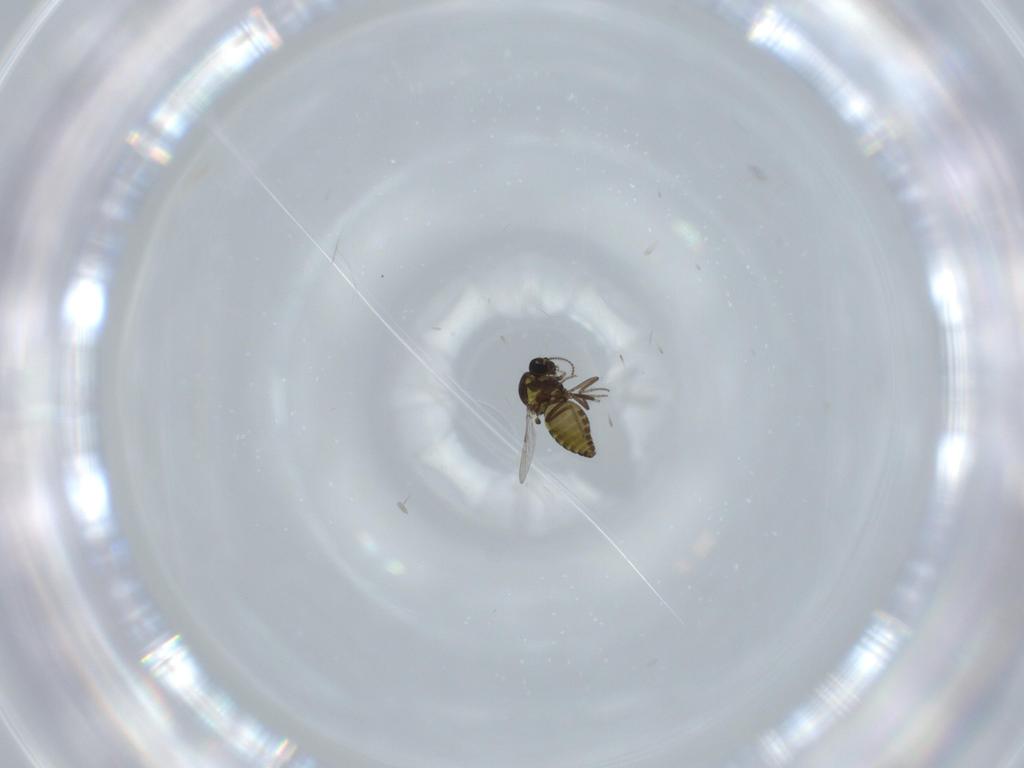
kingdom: Animalia
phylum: Arthropoda
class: Insecta
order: Diptera
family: Ceratopogonidae
